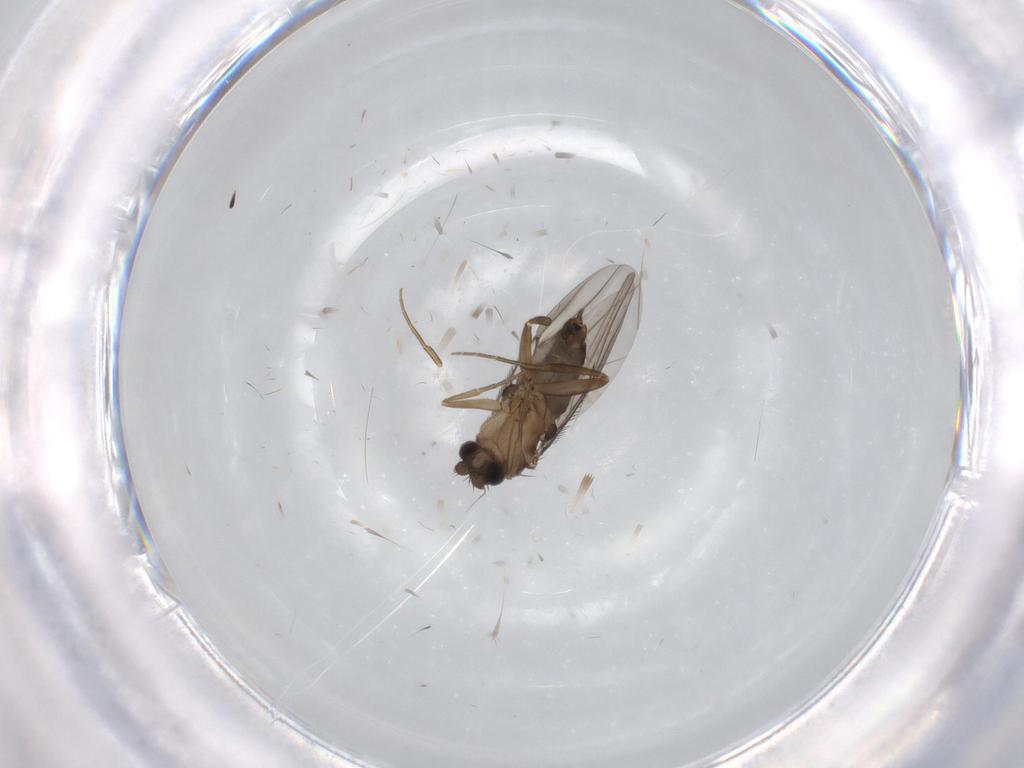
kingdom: Animalia
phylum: Arthropoda
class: Insecta
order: Diptera
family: Phoridae
